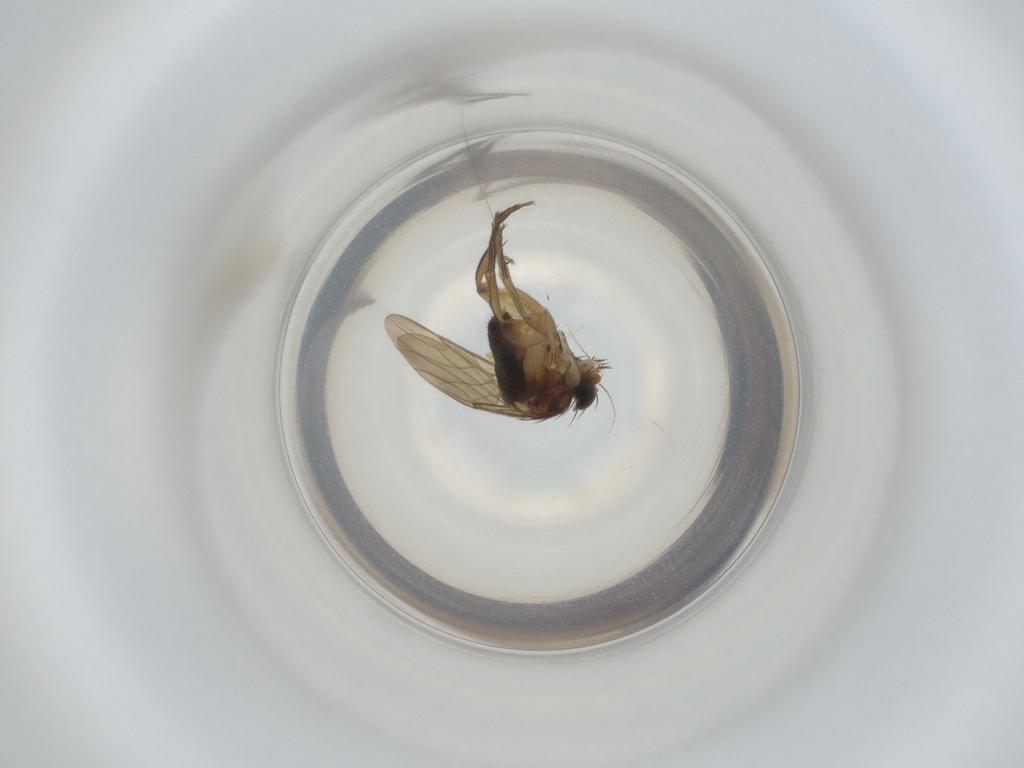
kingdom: Animalia
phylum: Arthropoda
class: Insecta
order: Diptera
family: Phoridae
